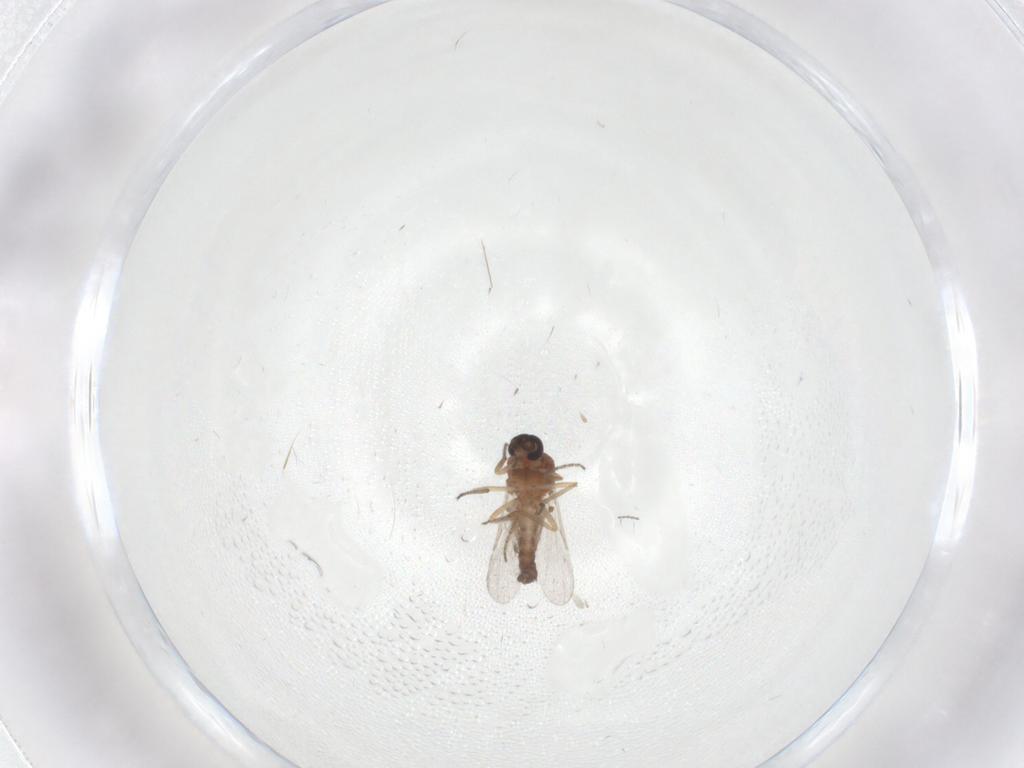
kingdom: Animalia
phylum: Arthropoda
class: Insecta
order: Diptera
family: Ceratopogonidae
